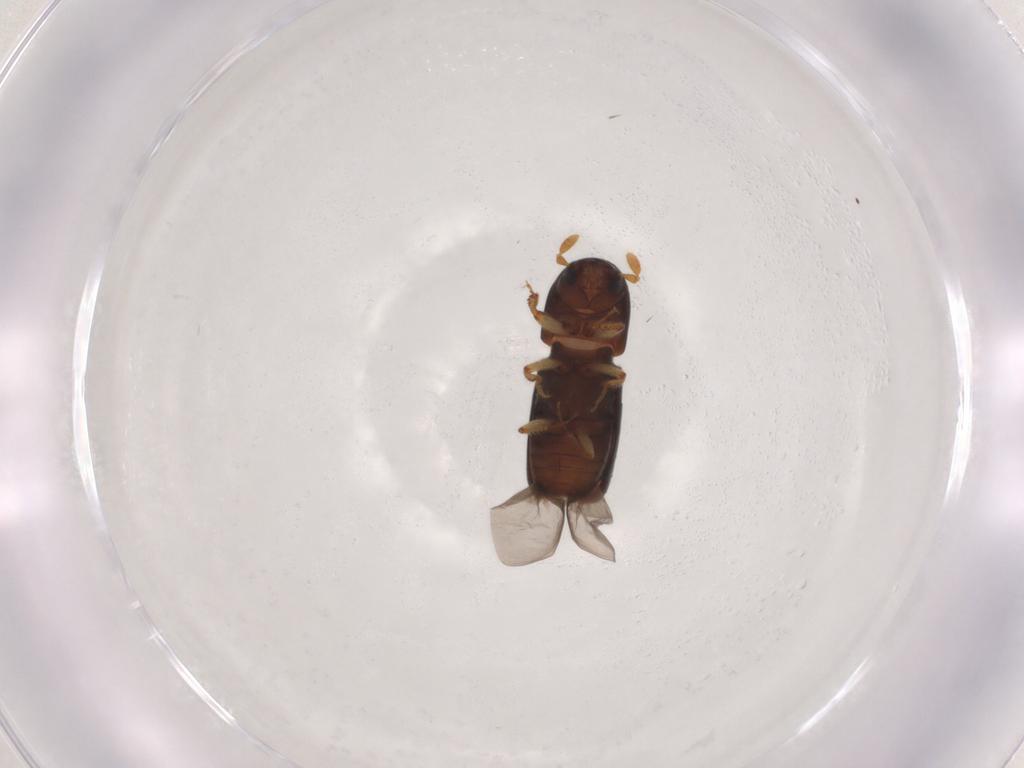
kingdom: Animalia
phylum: Arthropoda
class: Insecta
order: Coleoptera
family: Curculionidae
